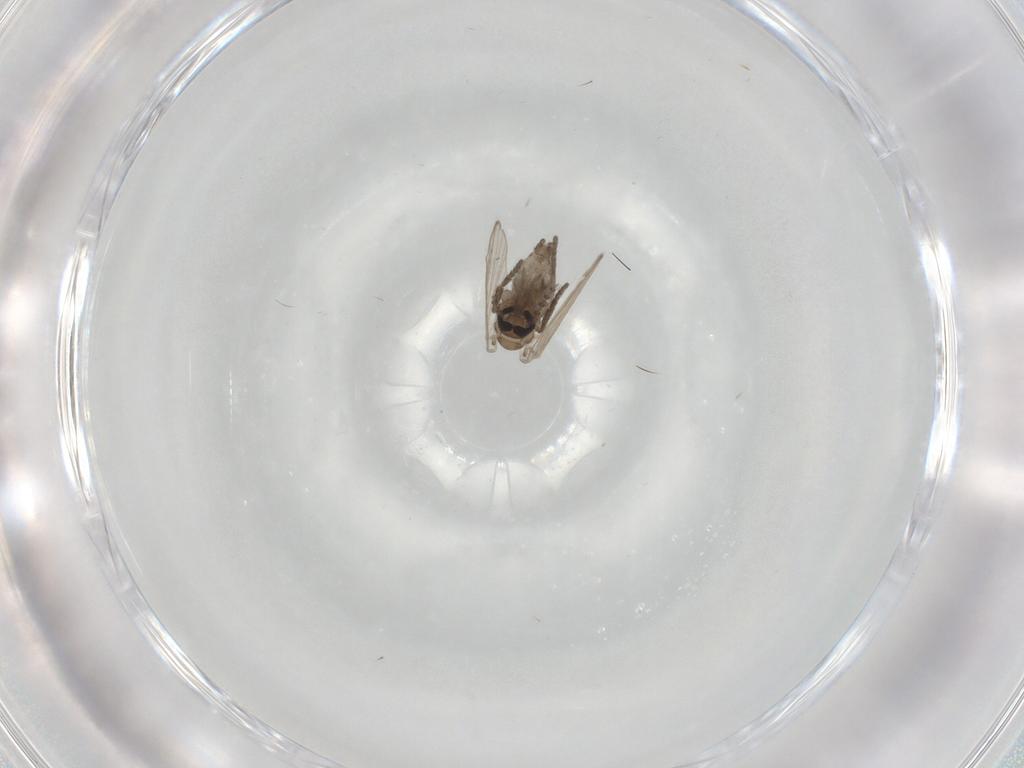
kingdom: Animalia
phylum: Arthropoda
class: Insecta
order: Diptera
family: Psychodidae
